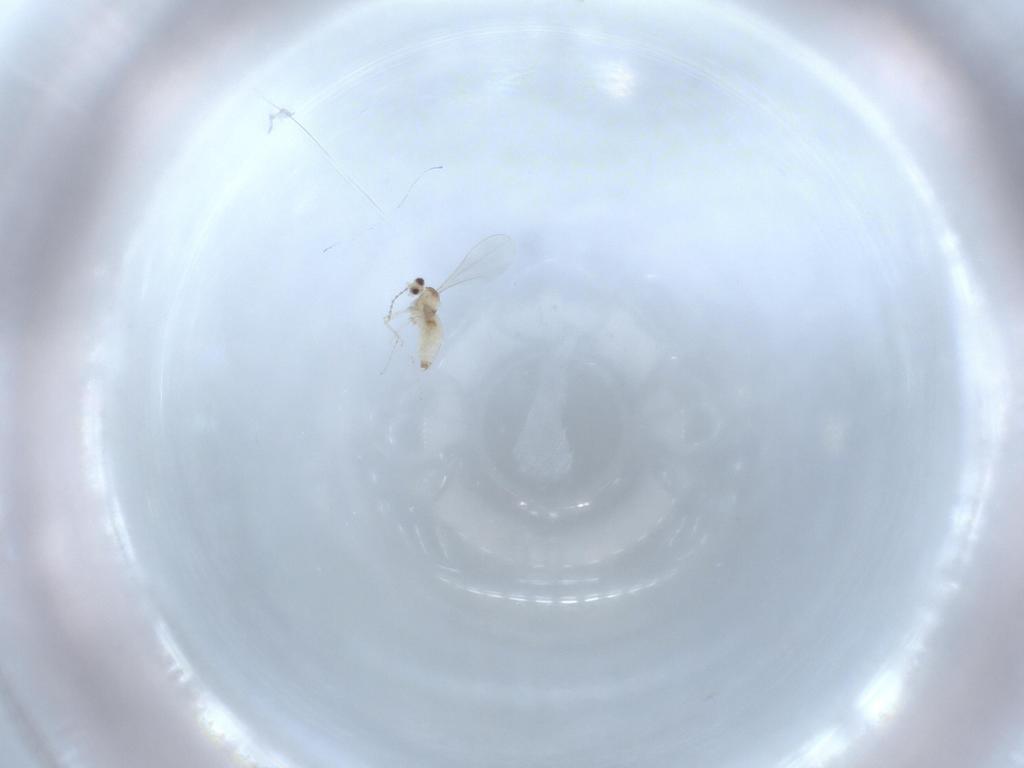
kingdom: Animalia
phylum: Arthropoda
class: Insecta
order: Diptera
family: Cecidomyiidae
